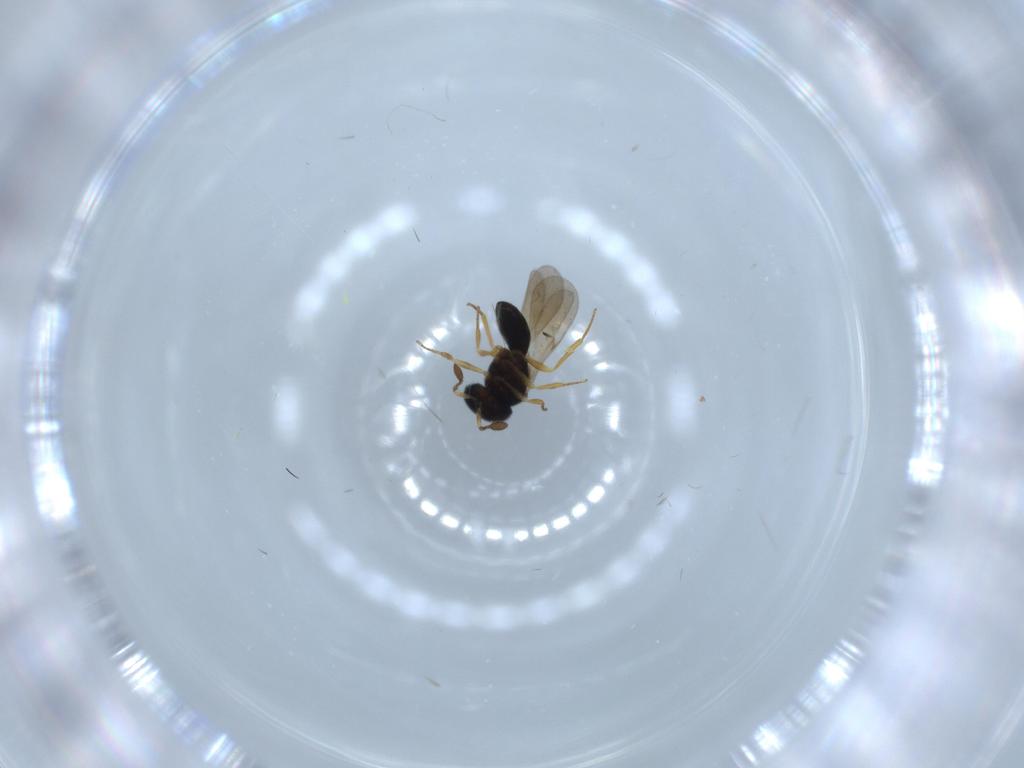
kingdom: Animalia
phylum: Arthropoda
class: Insecta
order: Hymenoptera
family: Scelionidae
